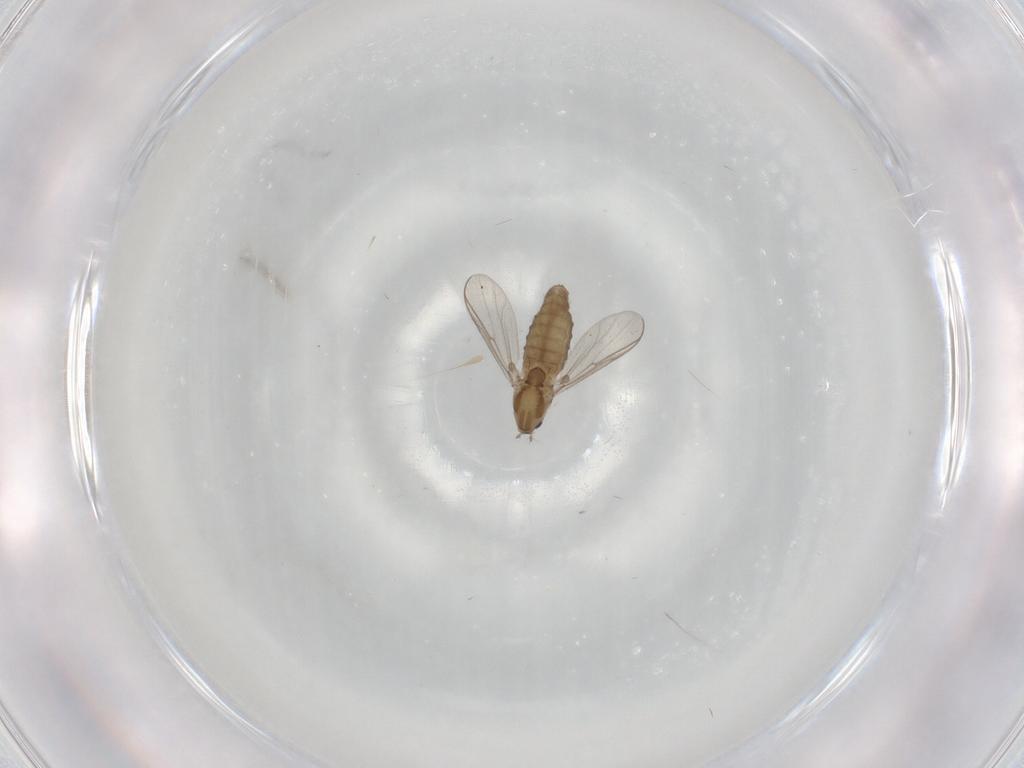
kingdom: Animalia
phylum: Arthropoda
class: Insecta
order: Diptera
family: Chironomidae
